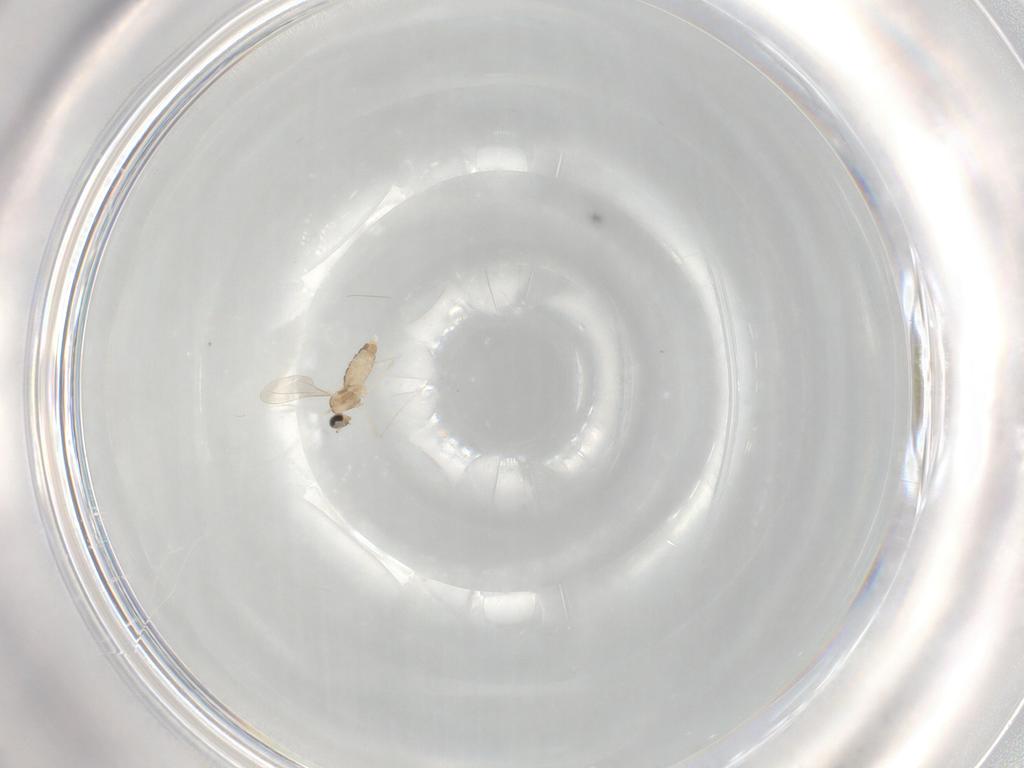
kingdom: Animalia
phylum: Arthropoda
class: Insecta
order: Diptera
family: Cecidomyiidae
